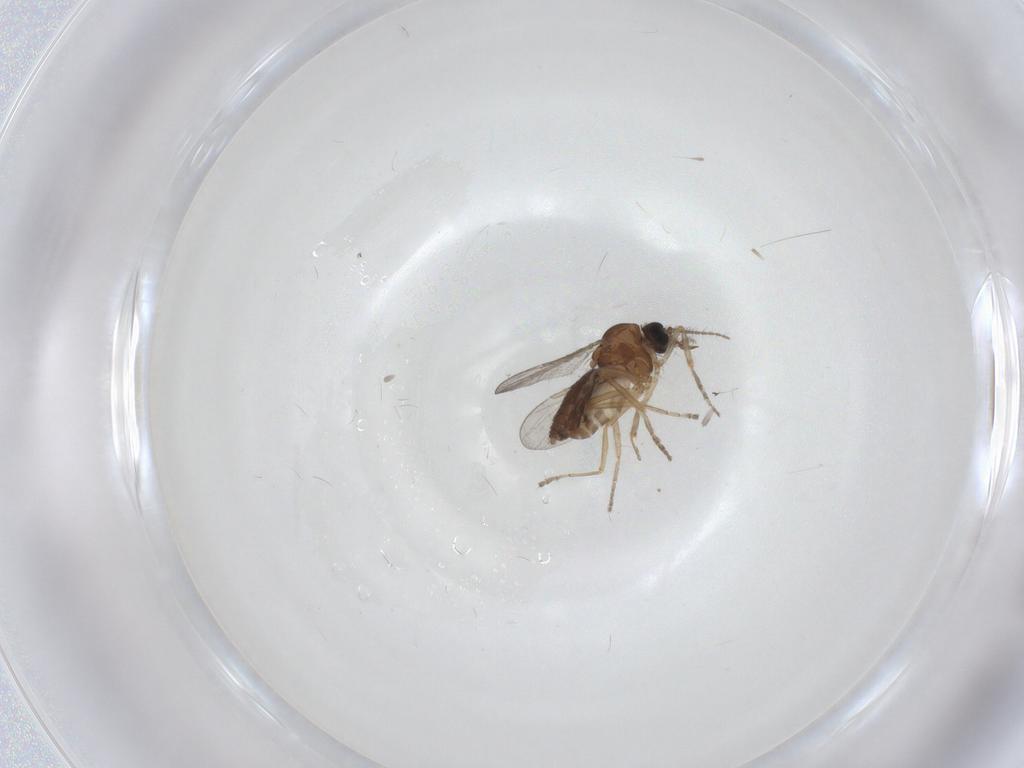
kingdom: Animalia
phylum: Arthropoda
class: Insecta
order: Diptera
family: Ceratopogonidae
